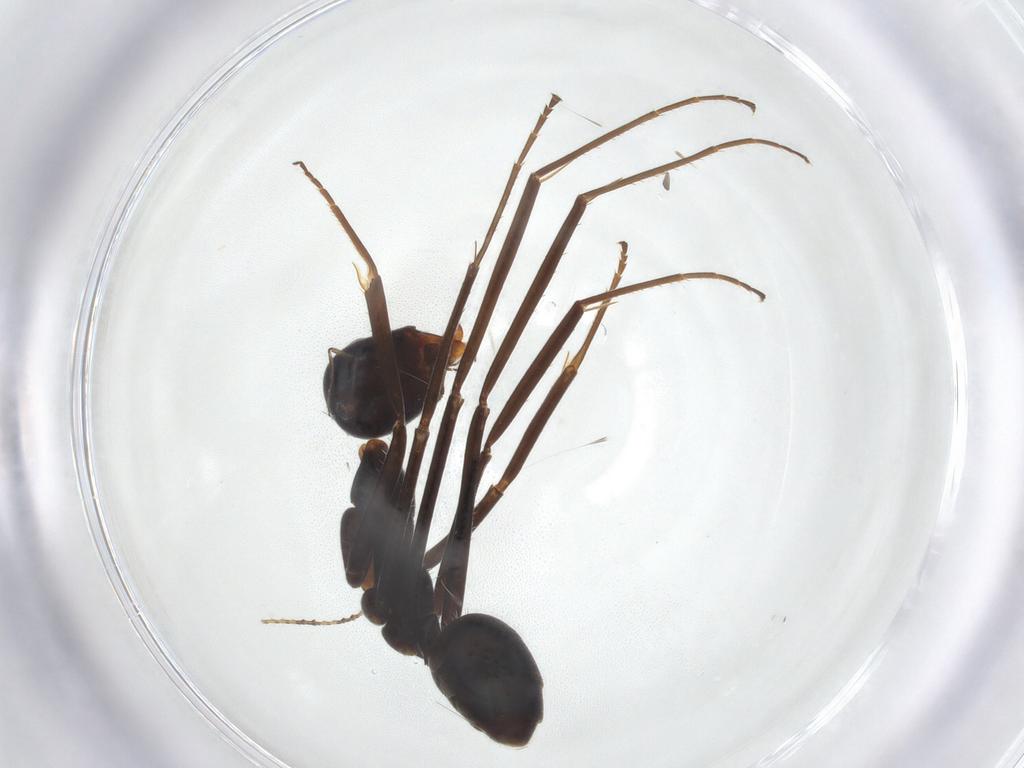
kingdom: Animalia
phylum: Arthropoda
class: Insecta
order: Hymenoptera
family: Formicidae
